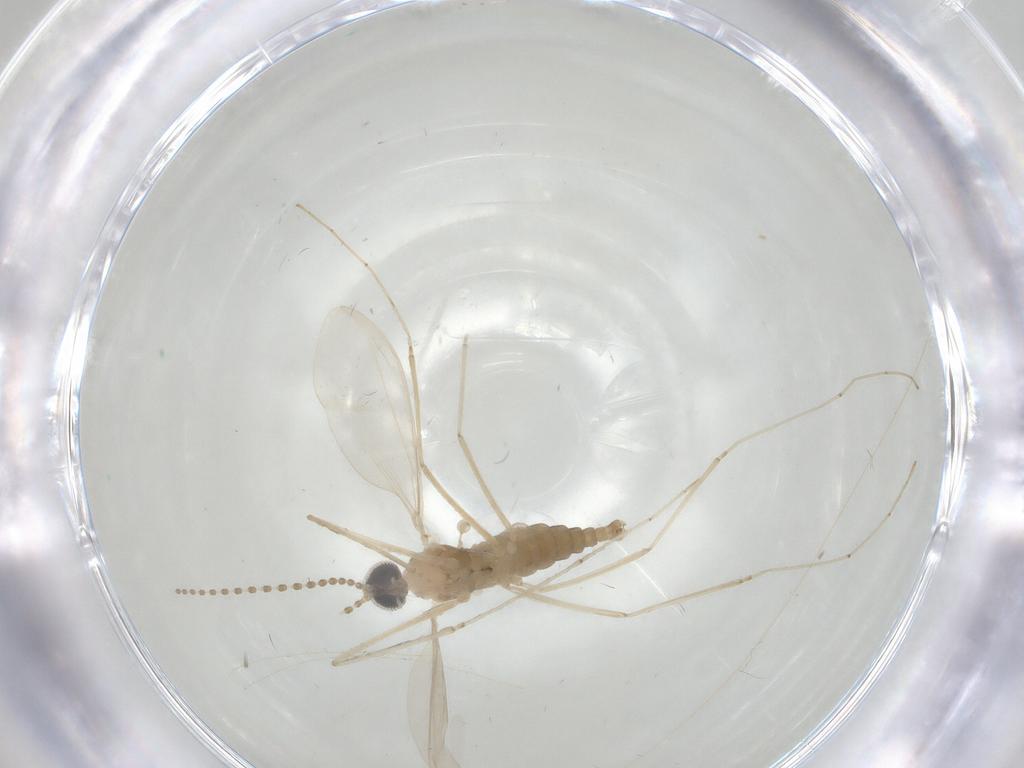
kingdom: Animalia
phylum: Arthropoda
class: Insecta
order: Diptera
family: Cecidomyiidae
